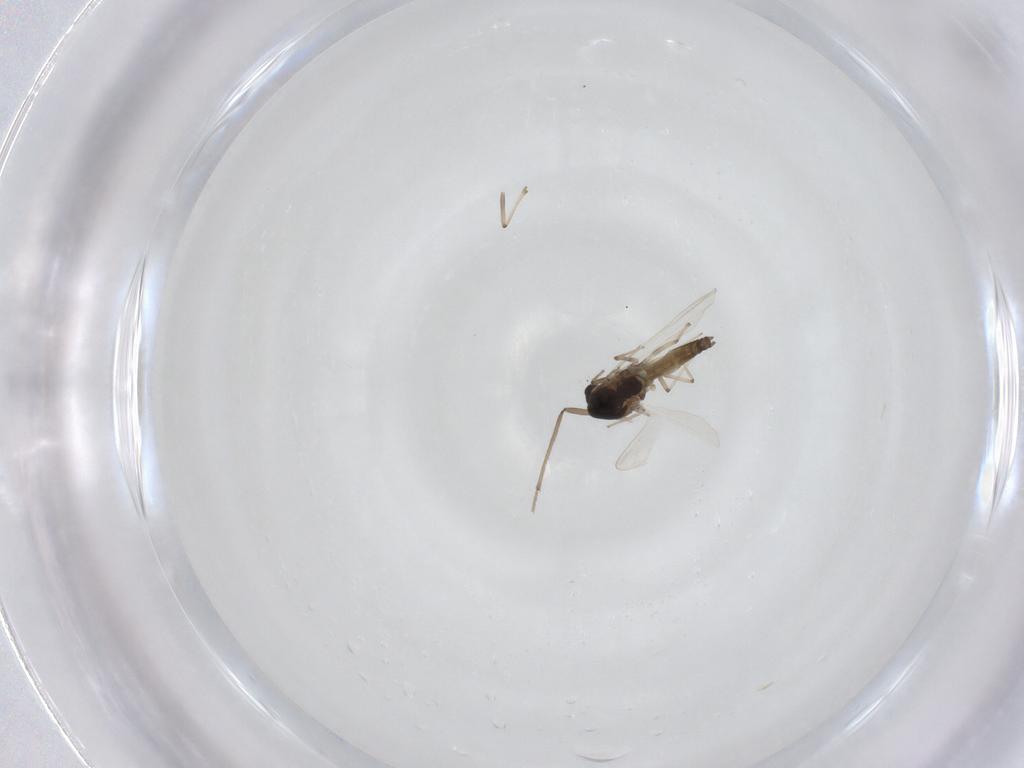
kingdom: Animalia
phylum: Arthropoda
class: Insecta
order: Diptera
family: Chironomidae
